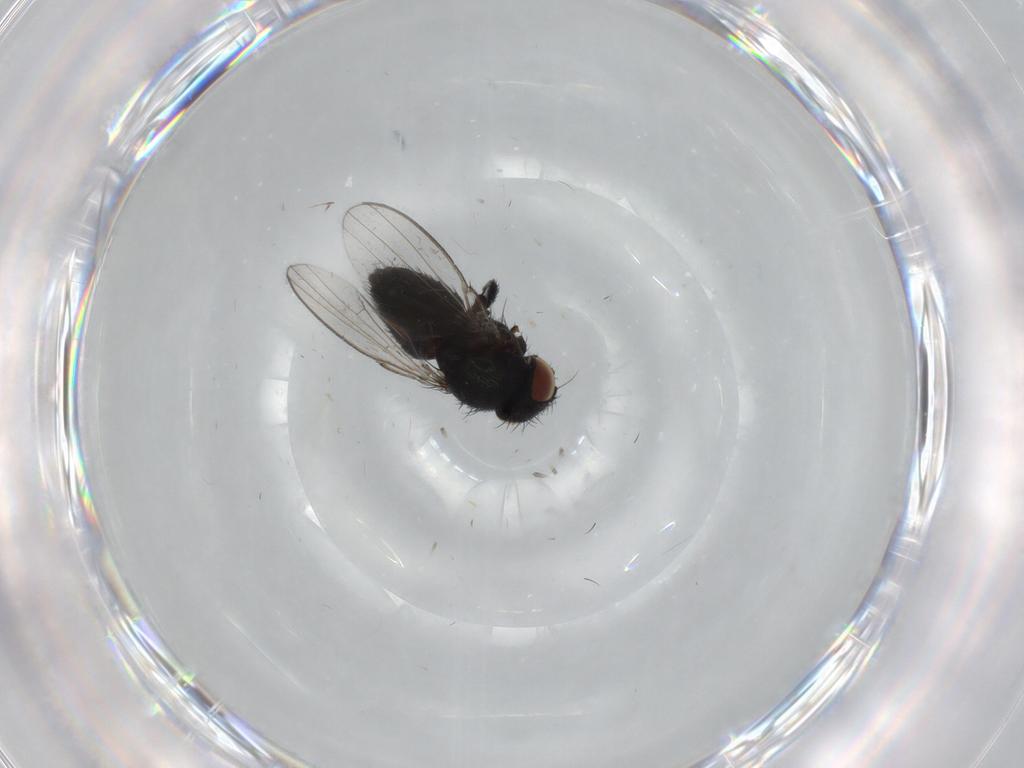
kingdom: Animalia
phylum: Arthropoda
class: Insecta
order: Diptera
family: Milichiidae
